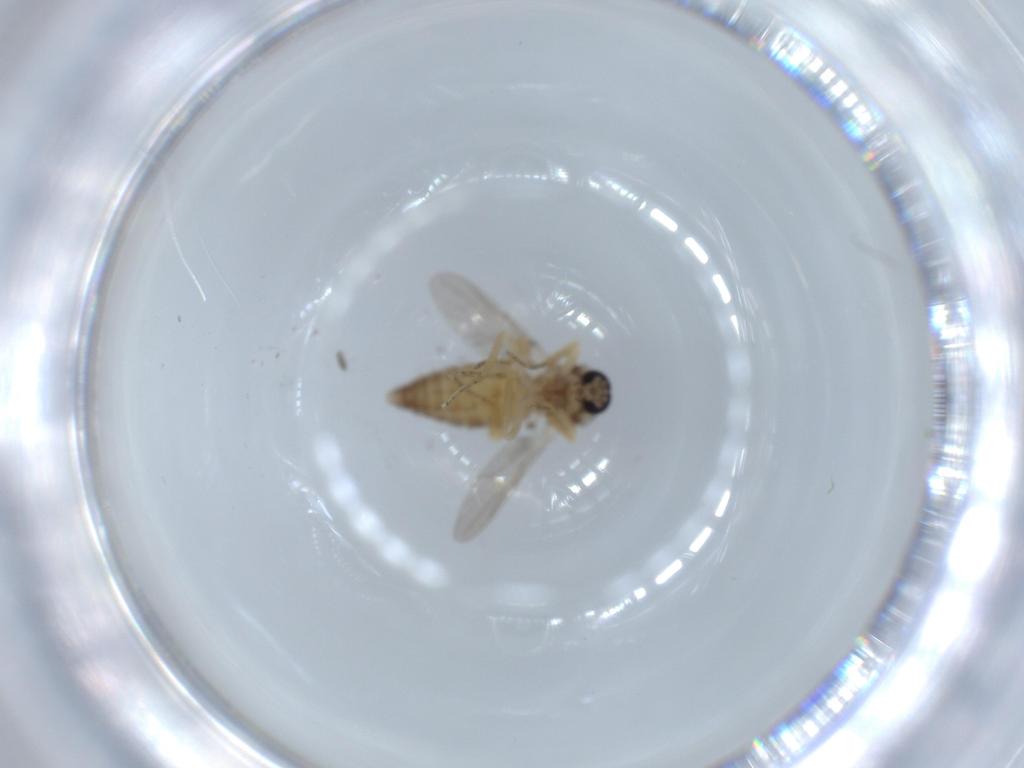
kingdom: Animalia
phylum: Arthropoda
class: Insecta
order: Diptera
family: Ceratopogonidae
